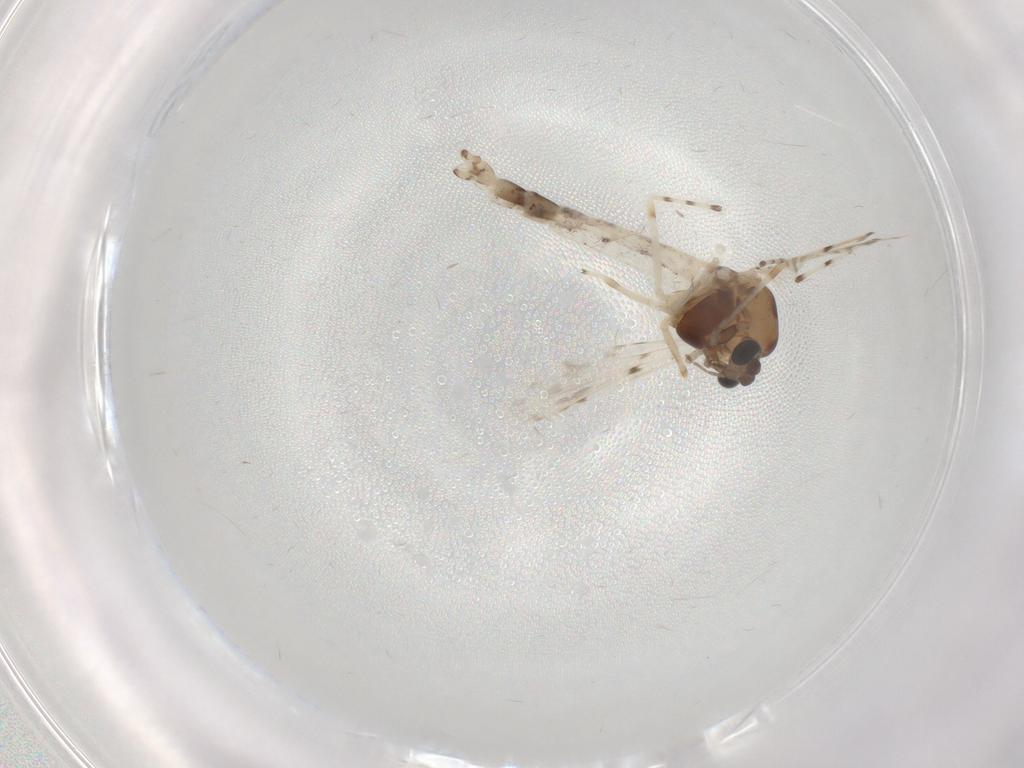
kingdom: Animalia
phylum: Arthropoda
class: Insecta
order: Diptera
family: Chironomidae
